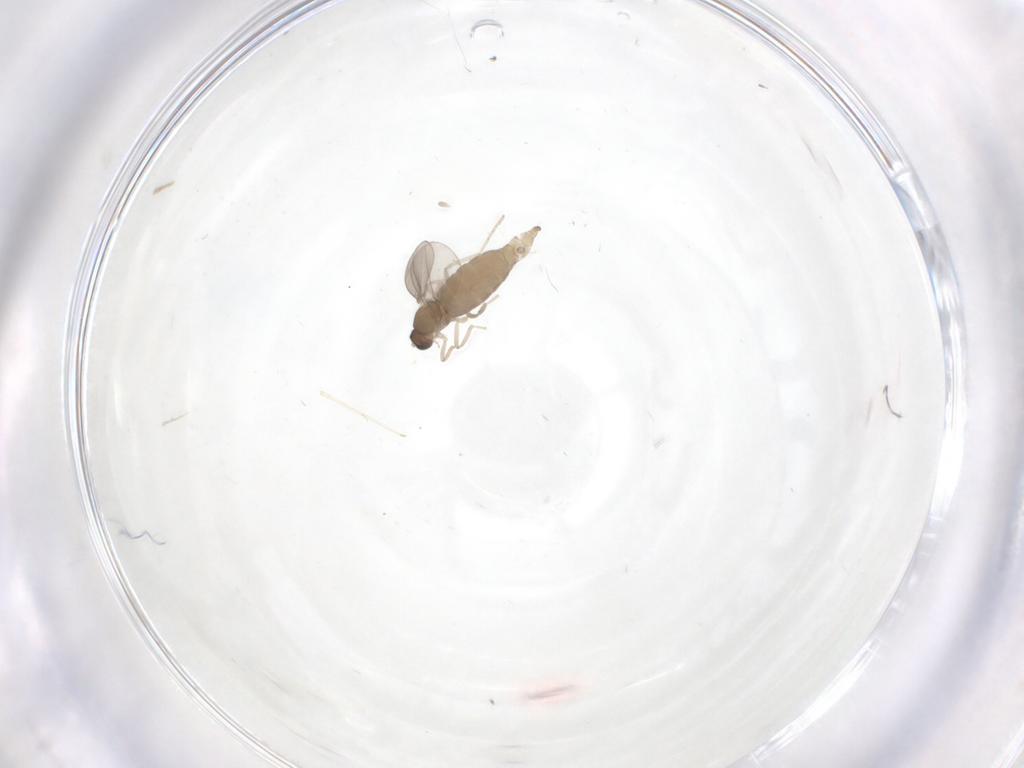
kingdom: Animalia
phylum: Arthropoda
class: Insecta
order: Diptera
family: Cecidomyiidae
